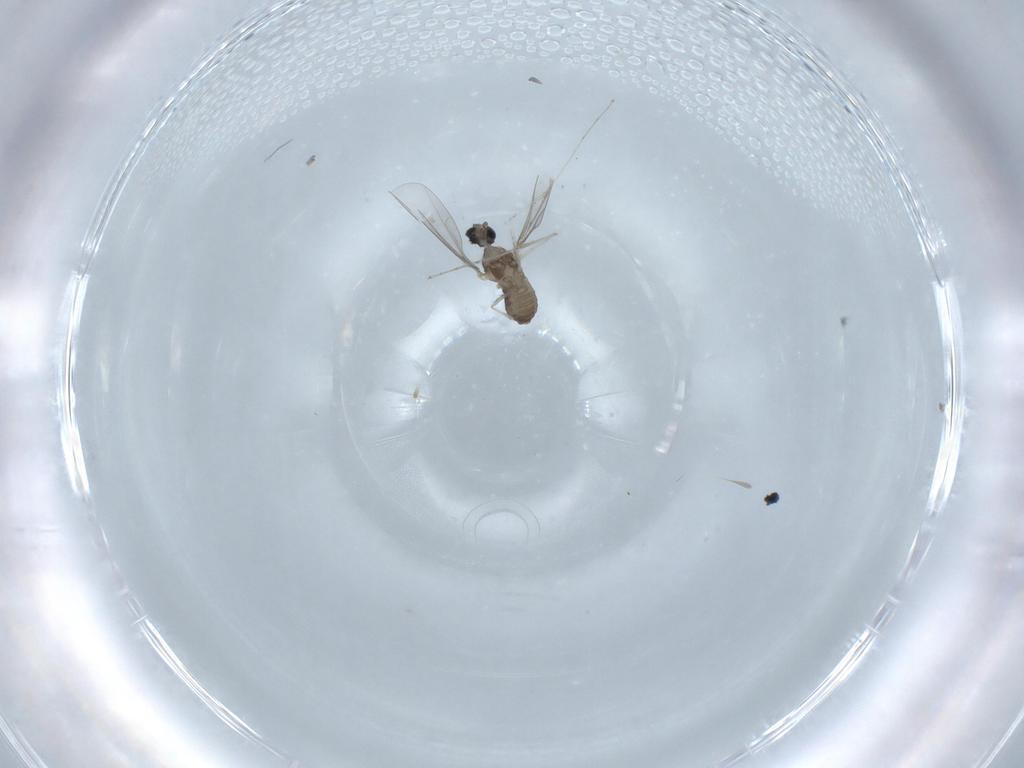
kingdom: Animalia
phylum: Arthropoda
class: Insecta
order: Diptera
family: Cecidomyiidae
